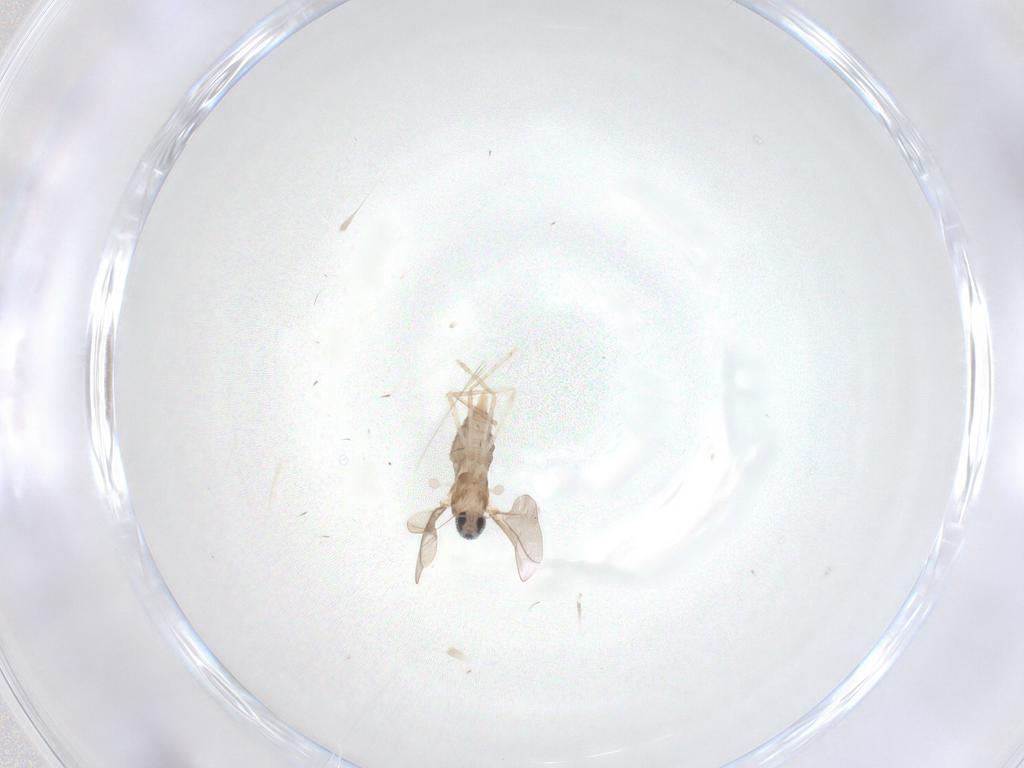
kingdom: Animalia
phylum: Arthropoda
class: Insecta
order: Diptera
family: Cecidomyiidae
